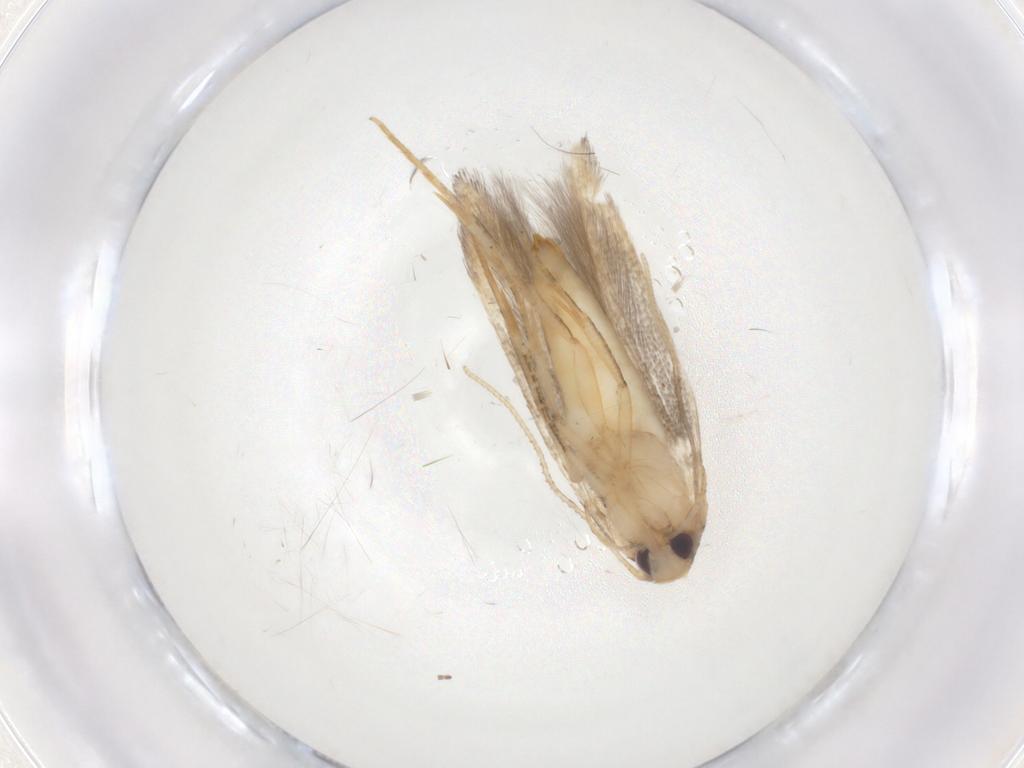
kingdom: Animalia
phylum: Arthropoda
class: Insecta
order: Lepidoptera
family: Cosmopterigidae
